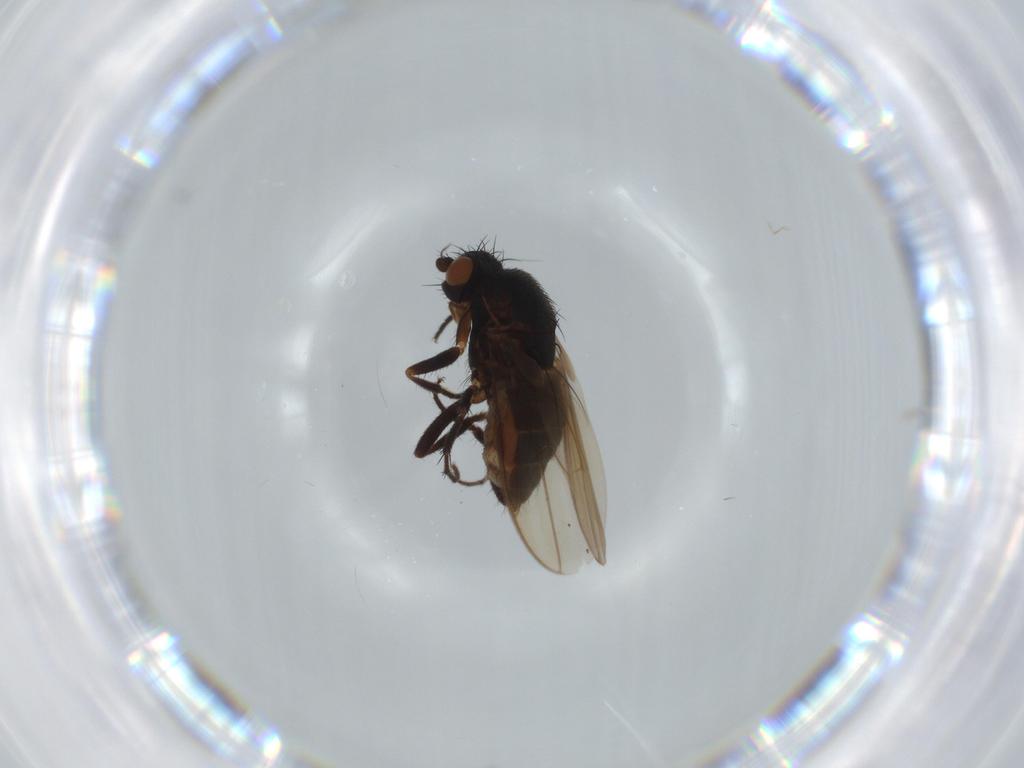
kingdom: Animalia
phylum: Arthropoda
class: Insecta
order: Diptera
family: Sphaeroceridae
